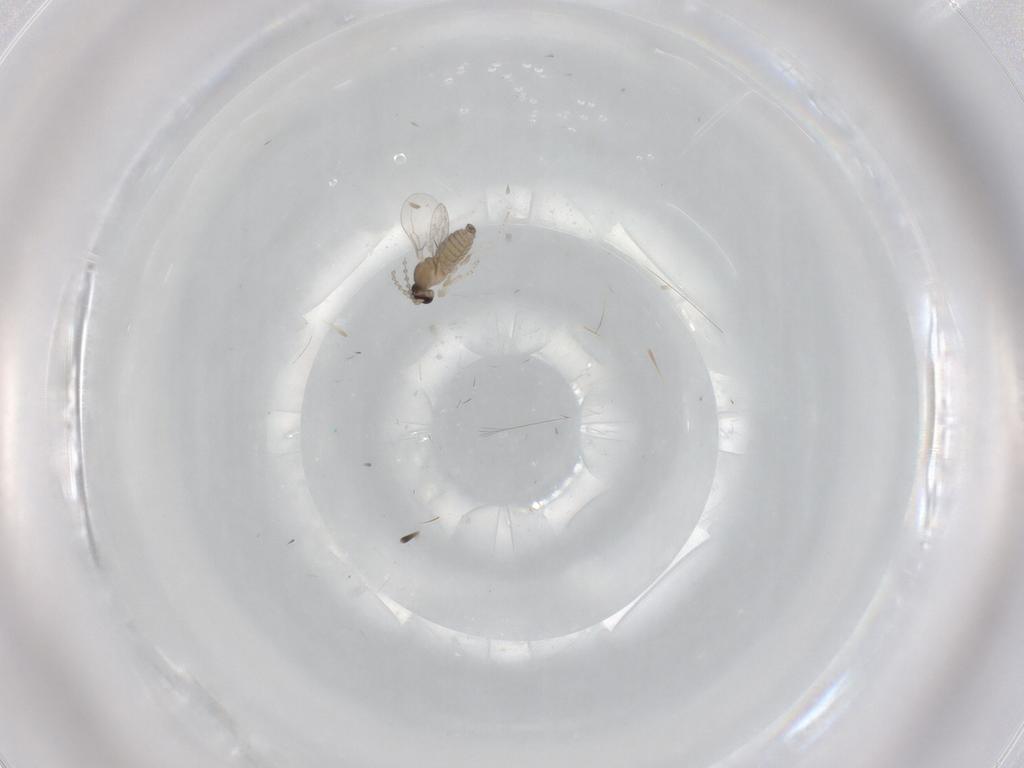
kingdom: Animalia
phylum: Arthropoda
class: Insecta
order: Diptera
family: Cecidomyiidae
